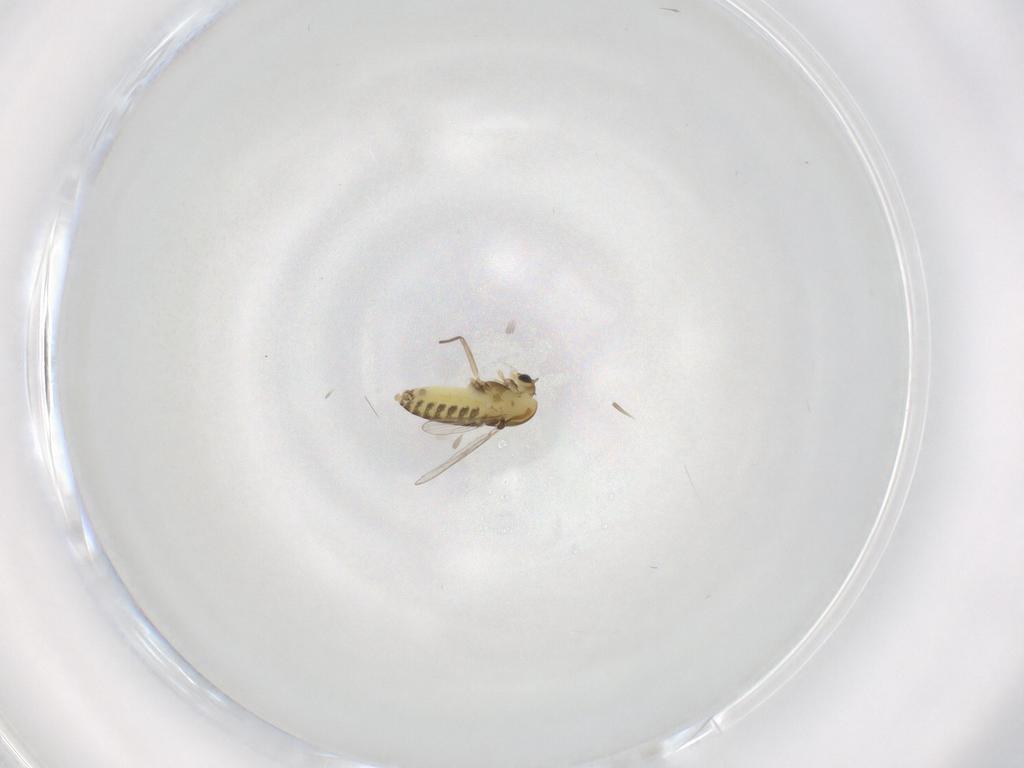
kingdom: Animalia
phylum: Arthropoda
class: Insecta
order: Diptera
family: Chironomidae
